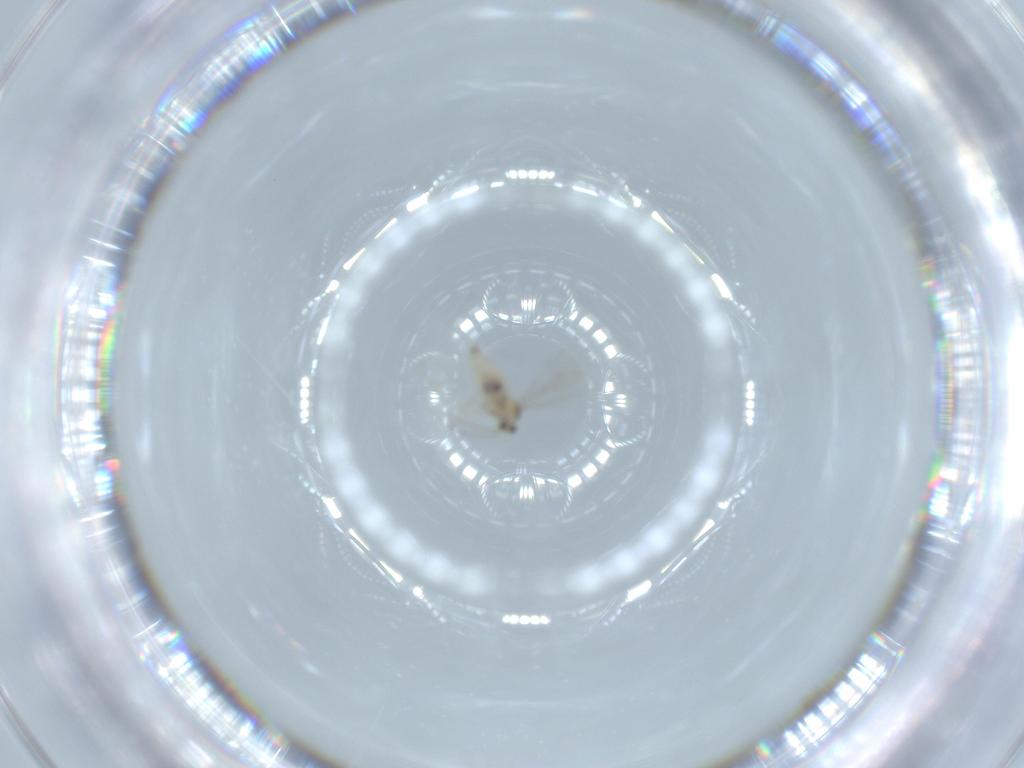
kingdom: Animalia
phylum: Arthropoda
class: Insecta
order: Diptera
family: Cecidomyiidae
